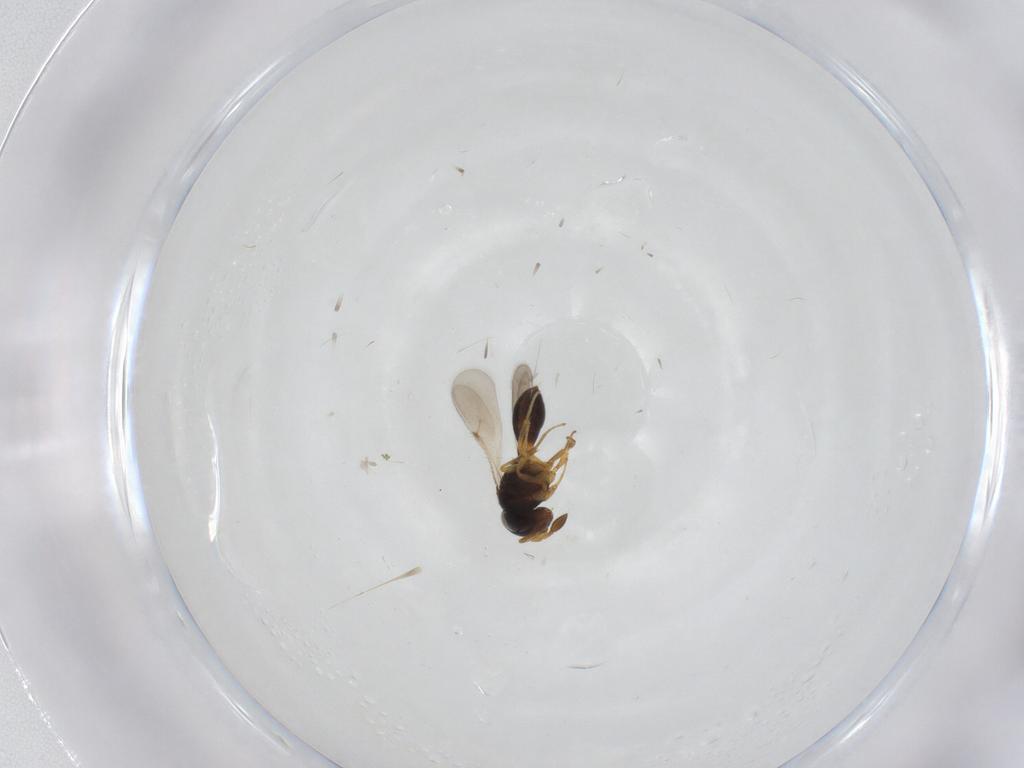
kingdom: Animalia
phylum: Arthropoda
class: Insecta
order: Hymenoptera
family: Scelionidae
